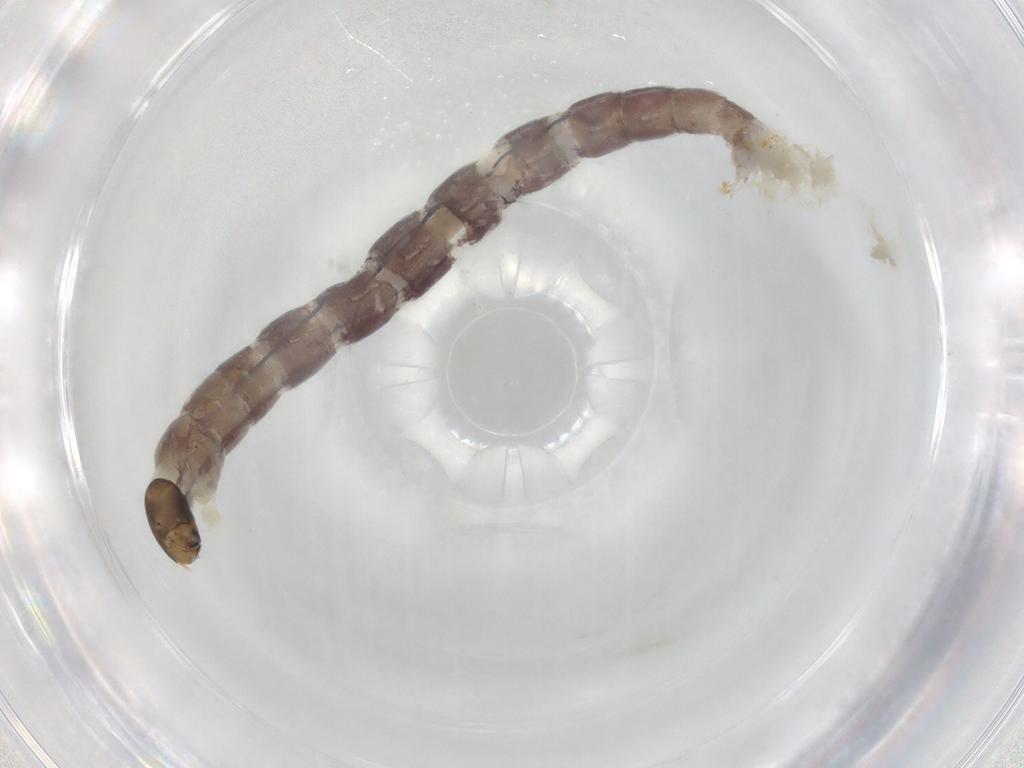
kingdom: Animalia
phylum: Arthropoda
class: Insecta
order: Diptera
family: Chironomidae
